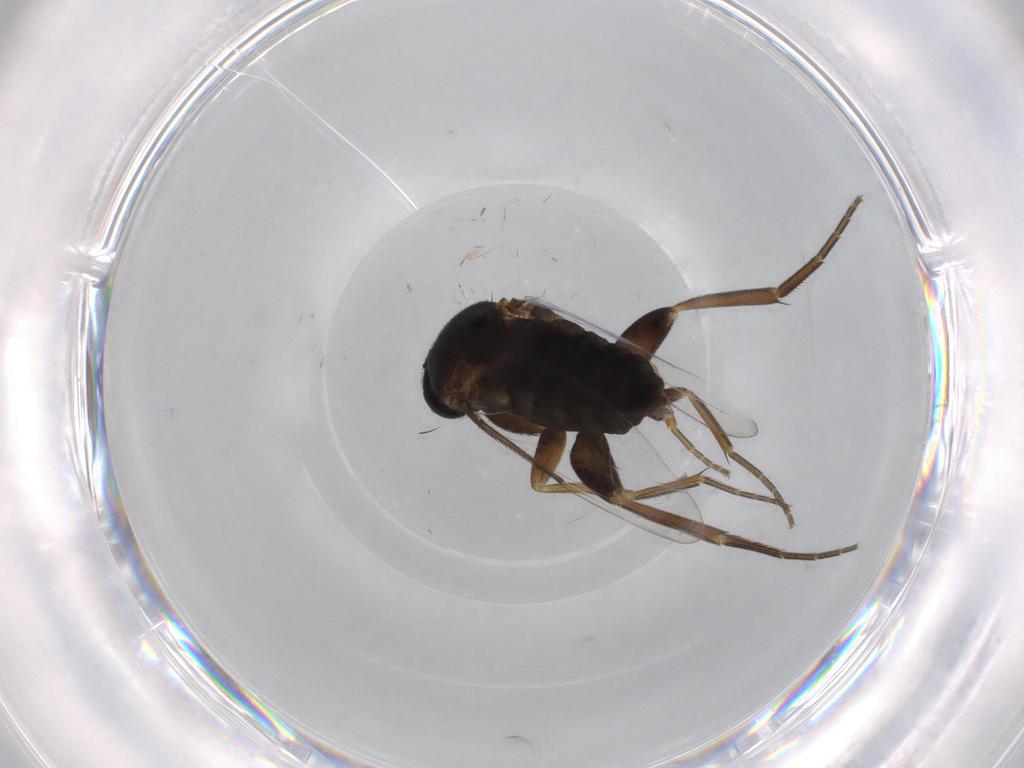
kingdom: Animalia
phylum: Arthropoda
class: Insecta
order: Diptera
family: Phoridae
